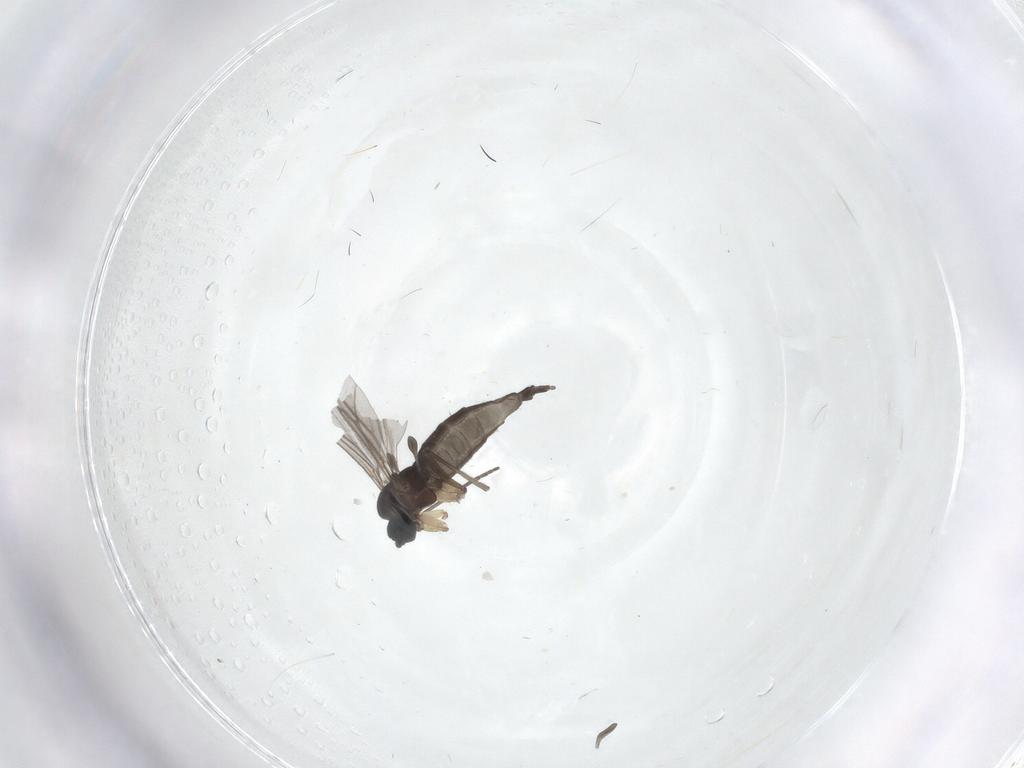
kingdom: Animalia
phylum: Arthropoda
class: Insecta
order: Diptera
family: Sciaridae
